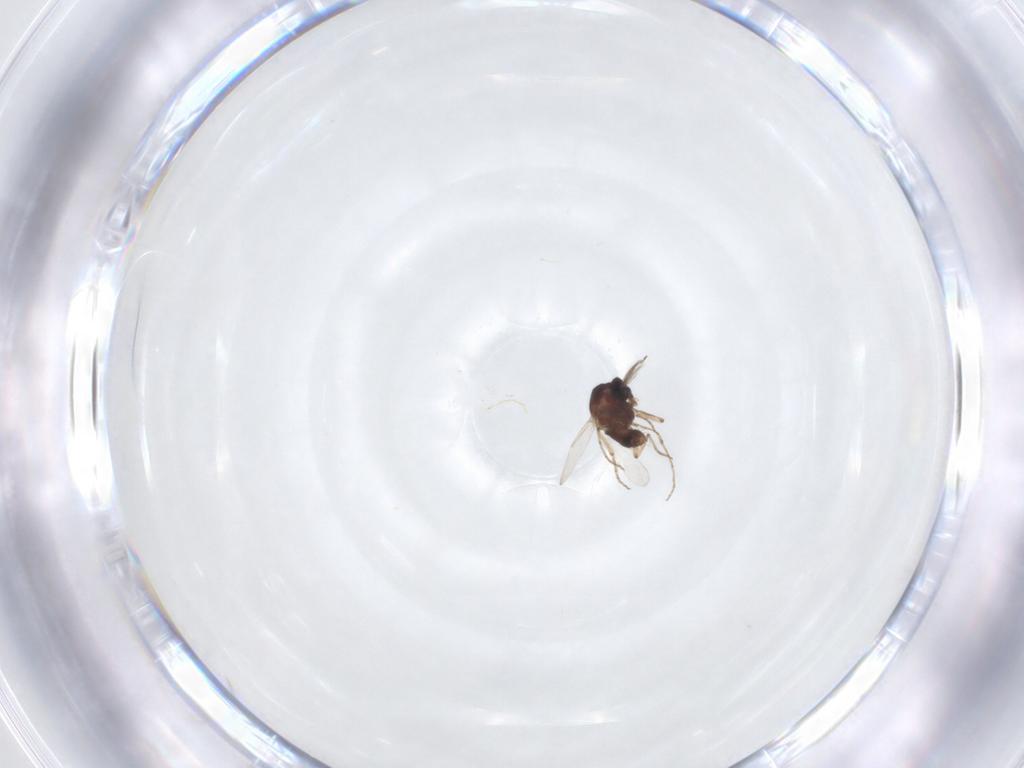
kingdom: Animalia
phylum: Arthropoda
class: Insecta
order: Diptera
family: Ceratopogonidae
